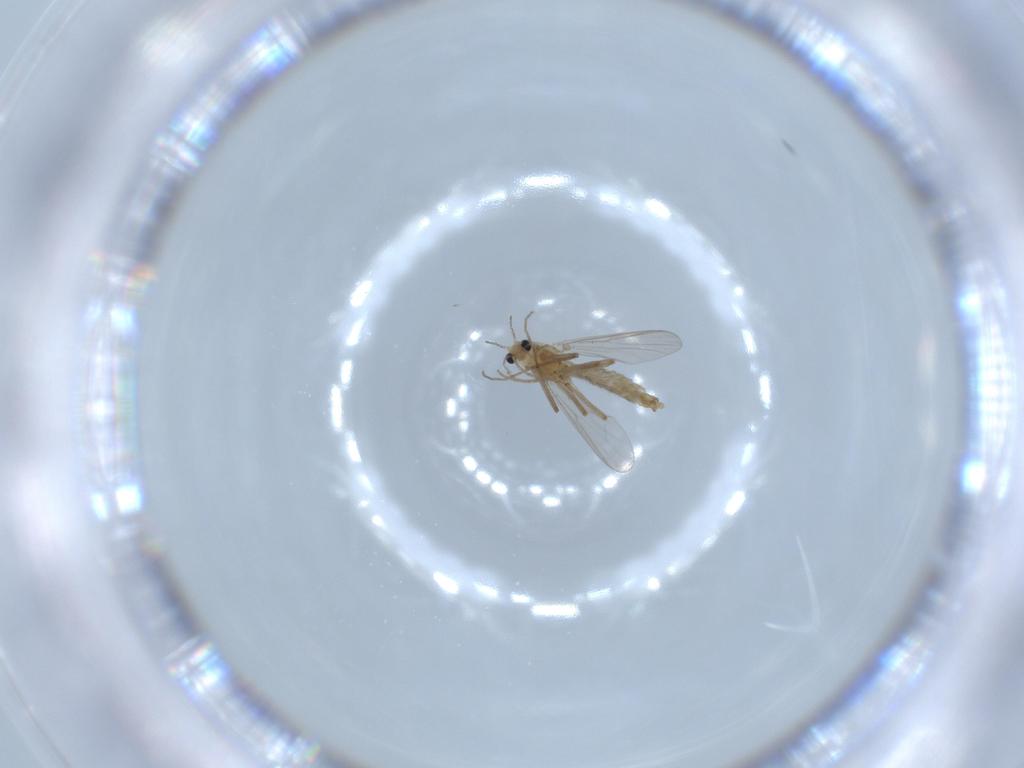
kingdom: Animalia
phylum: Arthropoda
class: Insecta
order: Diptera
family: Chironomidae
